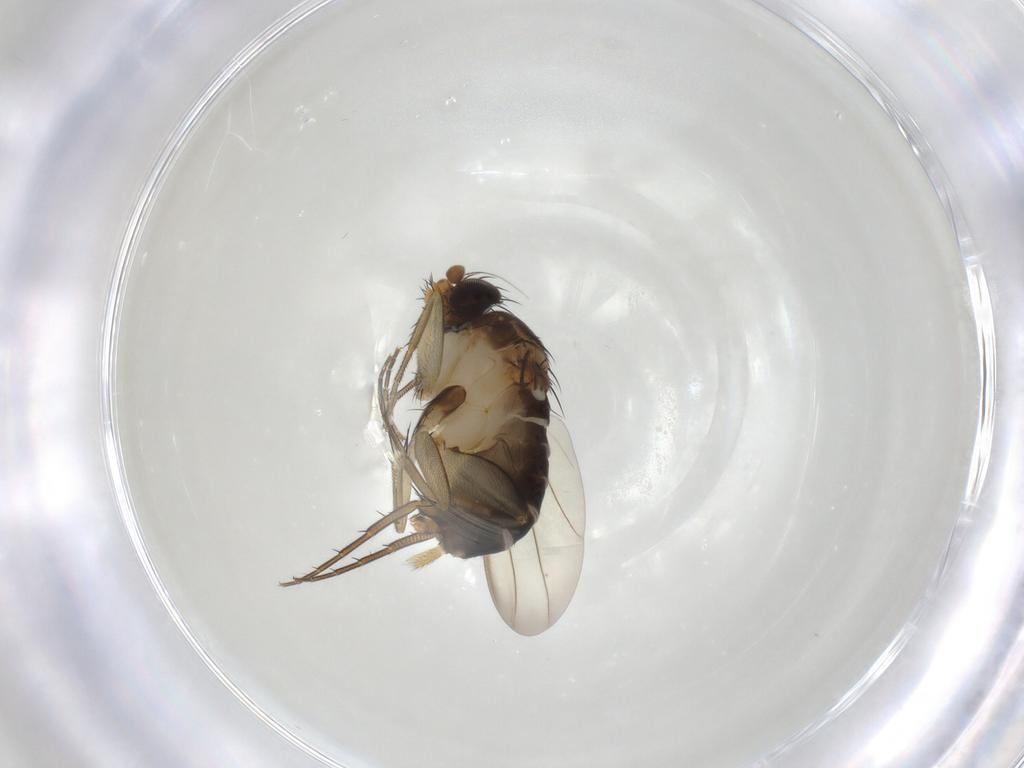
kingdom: Animalia
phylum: Arthropoda
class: Insecta
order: Diptera
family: Phoridae
